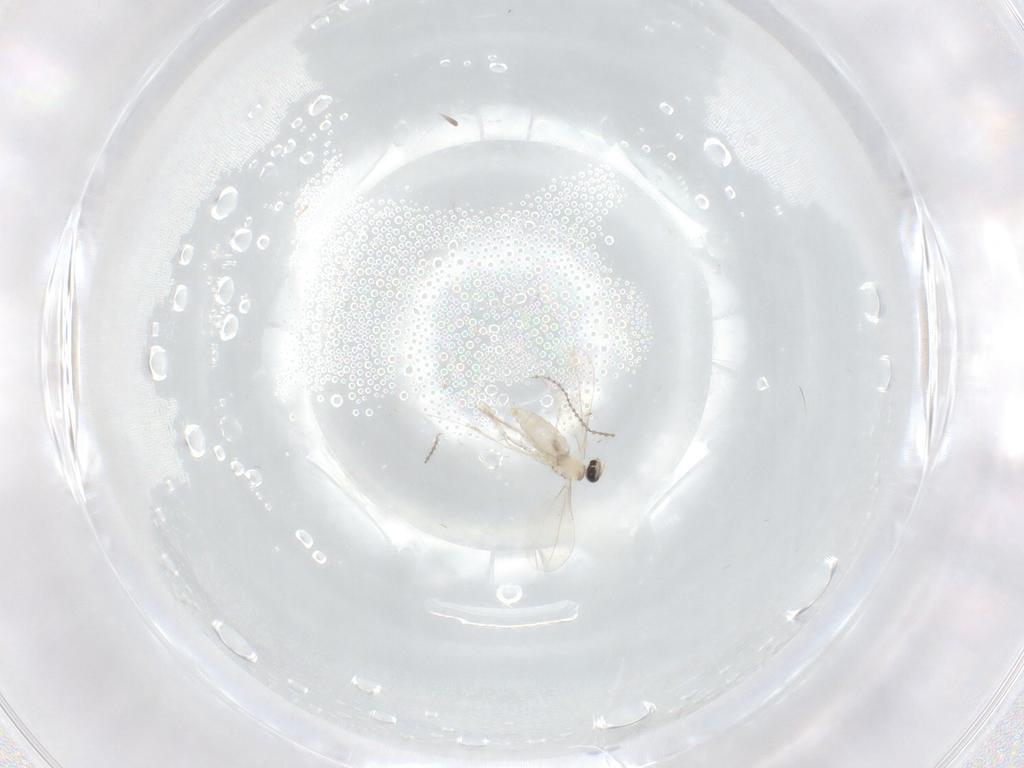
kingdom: Animalia
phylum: Arthropoda
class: Insecta
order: Diptera
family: Cecidomyiidae
